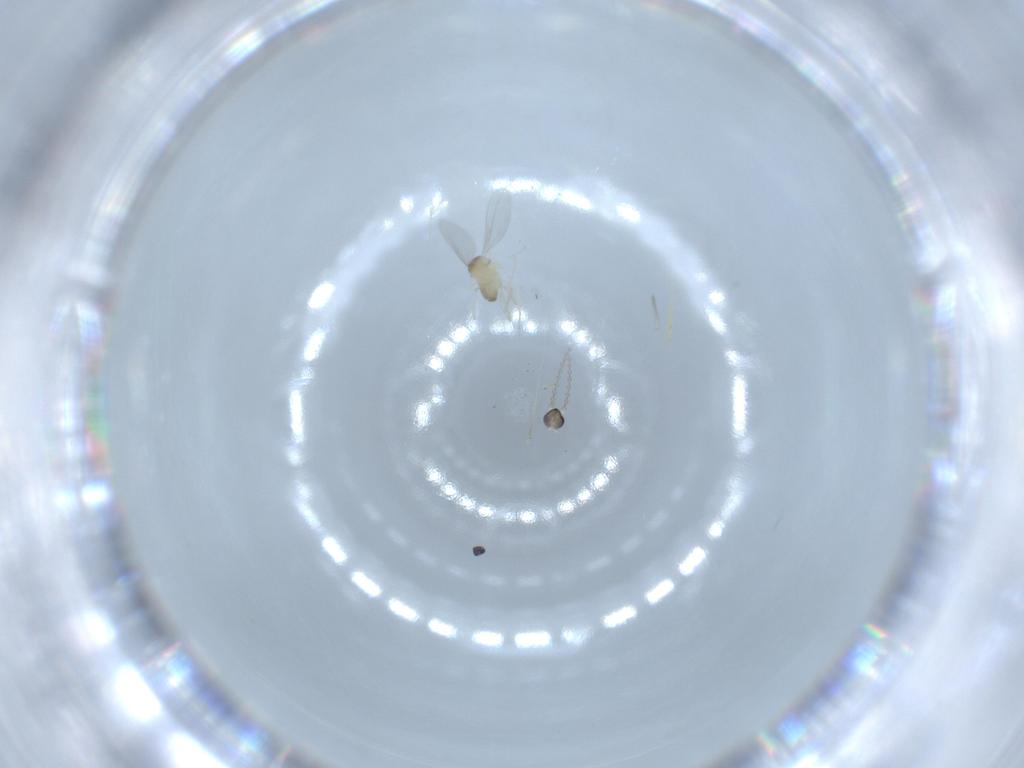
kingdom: Animalia
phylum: Arthropoda
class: Insecta
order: Diptera
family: Cecidomyiidae
